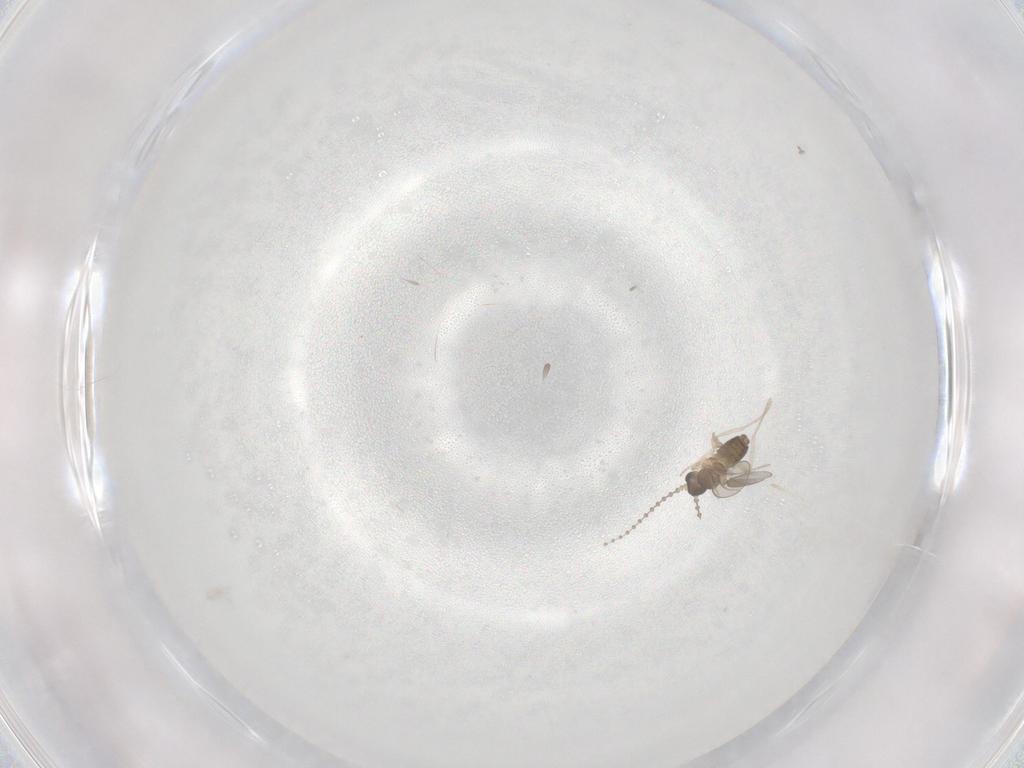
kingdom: Animalia
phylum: Arthropoda
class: Insecta
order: Diptera
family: Cecidomyiidae
